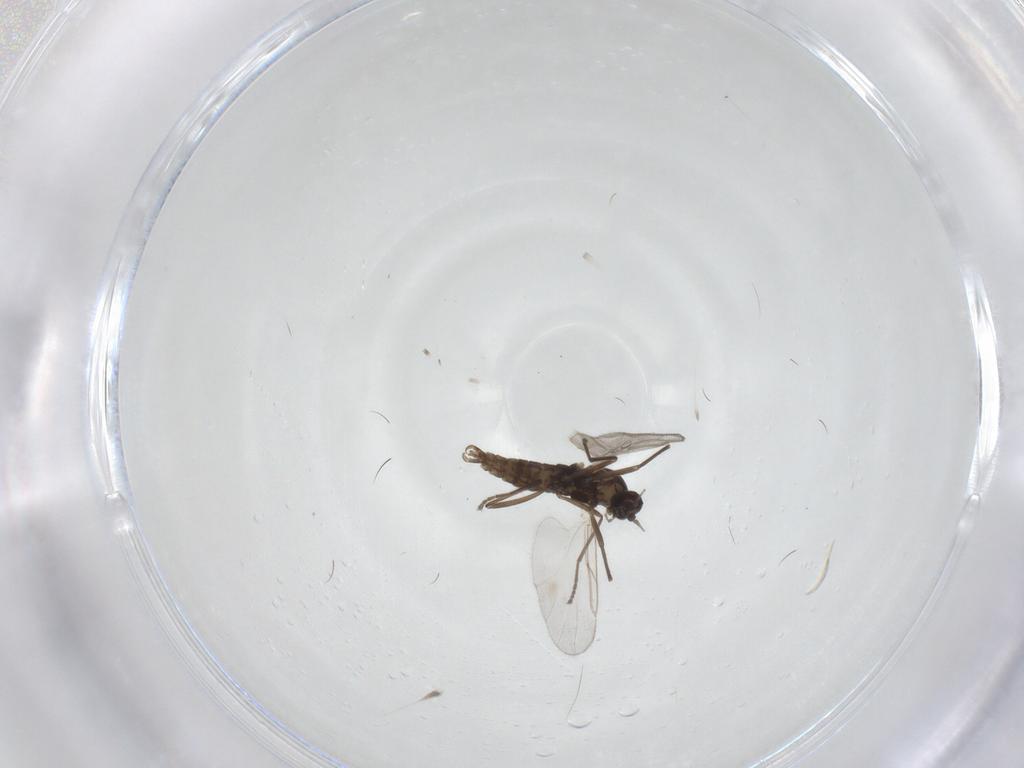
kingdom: Animalia
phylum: Arthropoda
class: Insecta
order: Diptera
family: Cecidomyiidae
